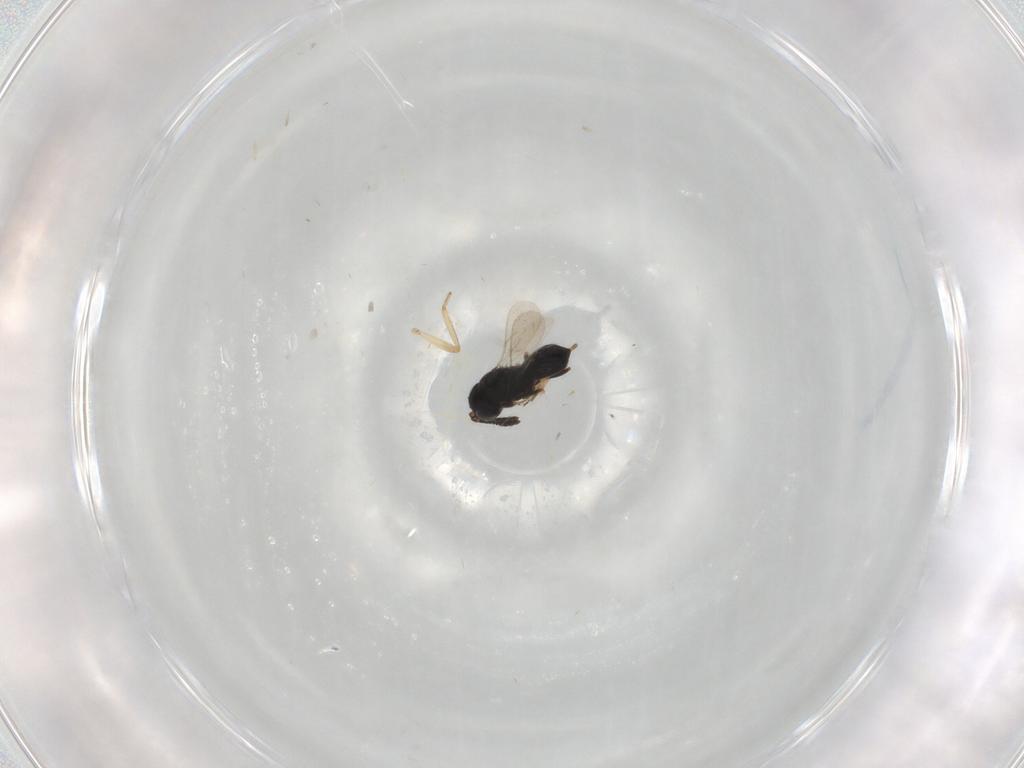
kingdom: Animalia
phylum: Arthropoda
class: Insecta
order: Hymenoptera
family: Scelionidae
